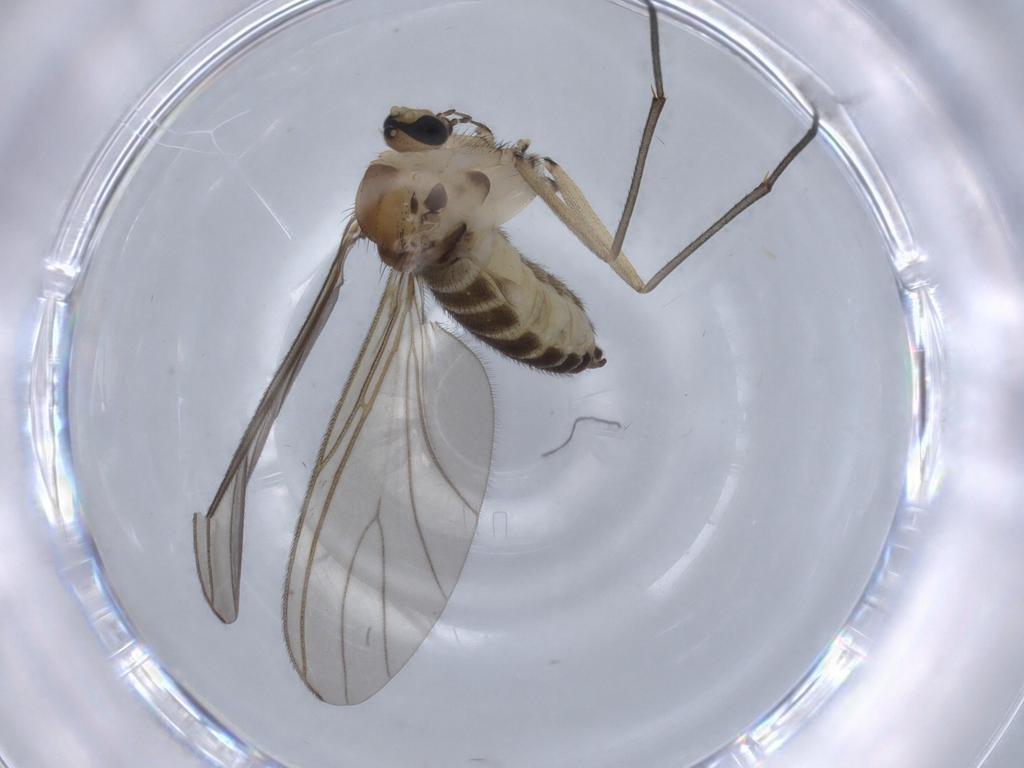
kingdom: Animalia
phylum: Arthropoda
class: Insecta
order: Diptera
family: Sciaridae
